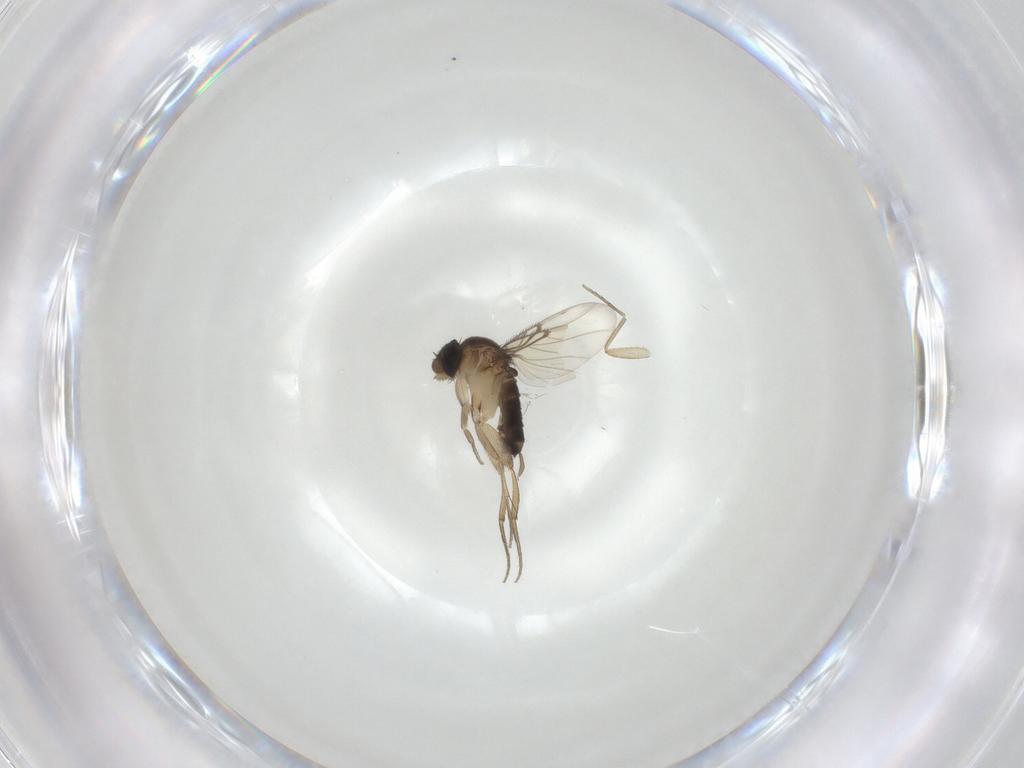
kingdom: Animalia
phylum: Arthropoda
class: Insecta
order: Diptera
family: Phoridae
